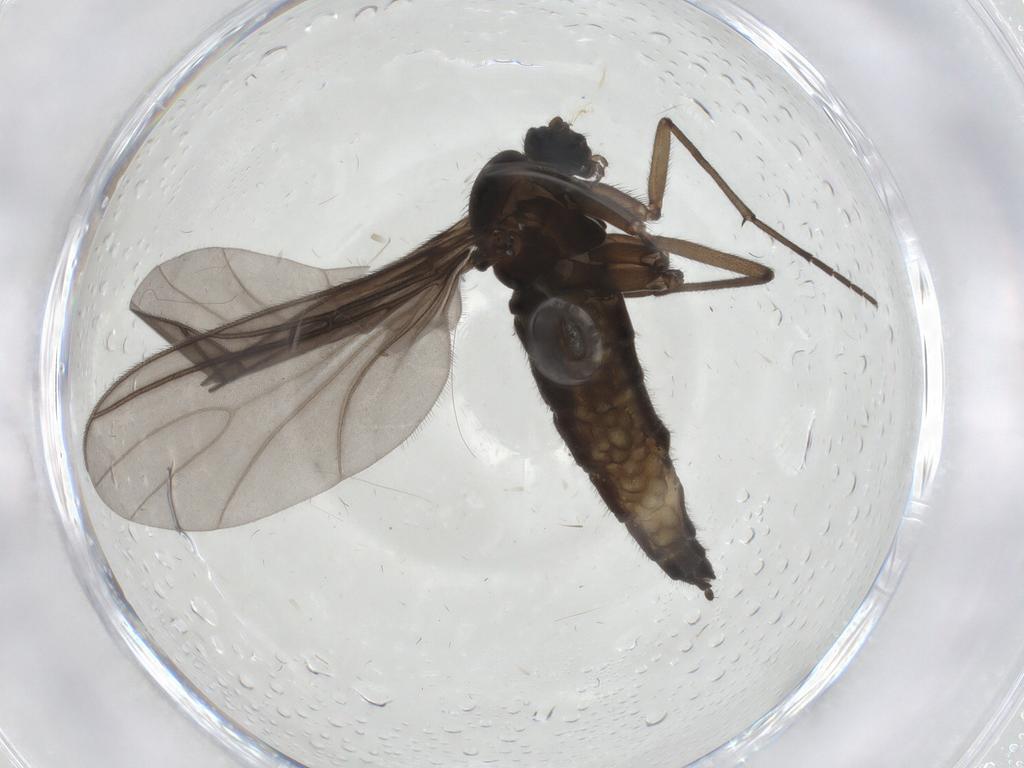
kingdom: Animalia
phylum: Arthropoda
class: Insecta
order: Diptera
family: Sciaridae
